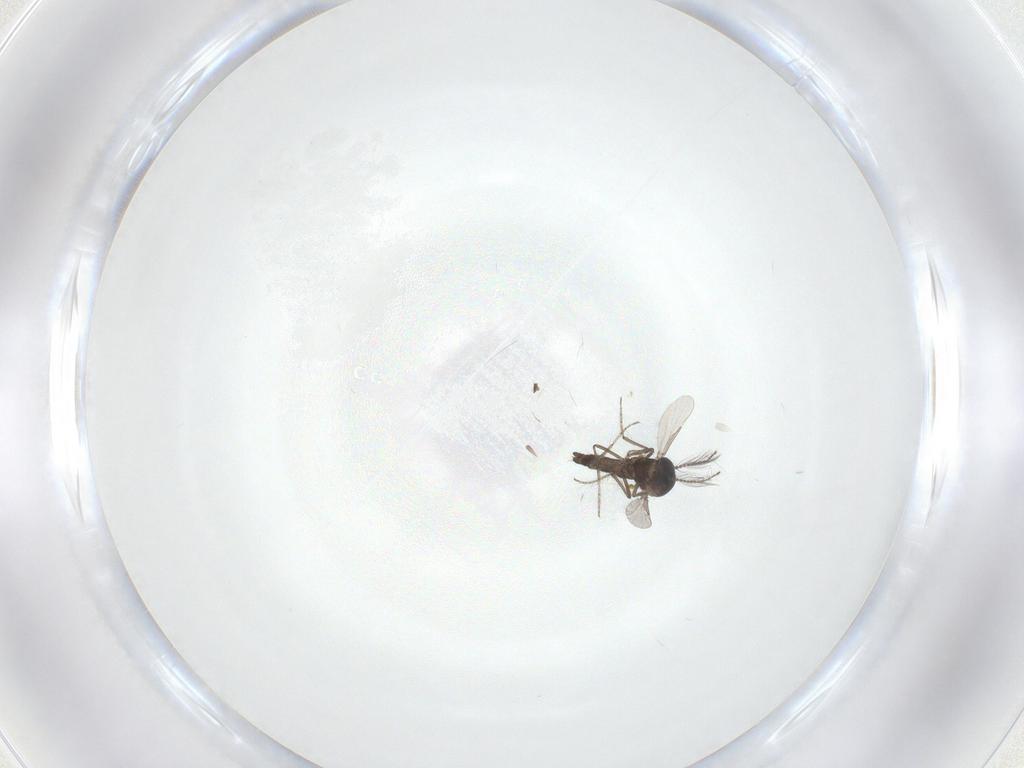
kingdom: Animalia
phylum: Arthropoda
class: Insecta
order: Diptera
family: Ceratopogonidae
